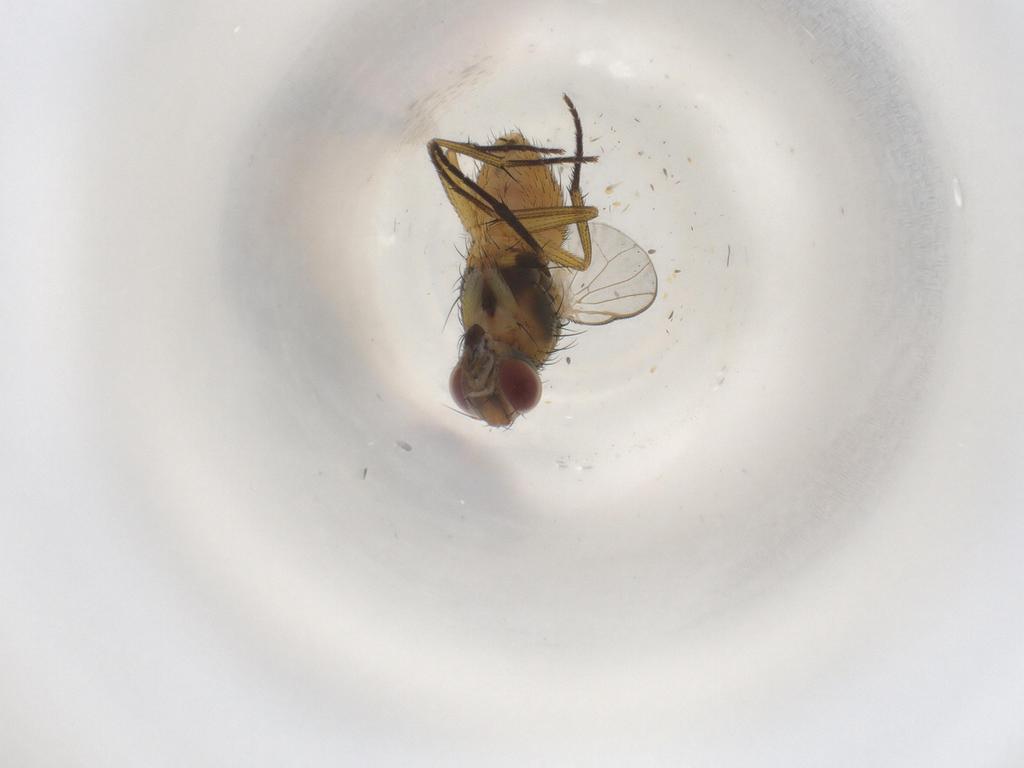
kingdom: Animalia
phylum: Arthropoda
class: Insecta
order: Diptera
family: Muscidae
